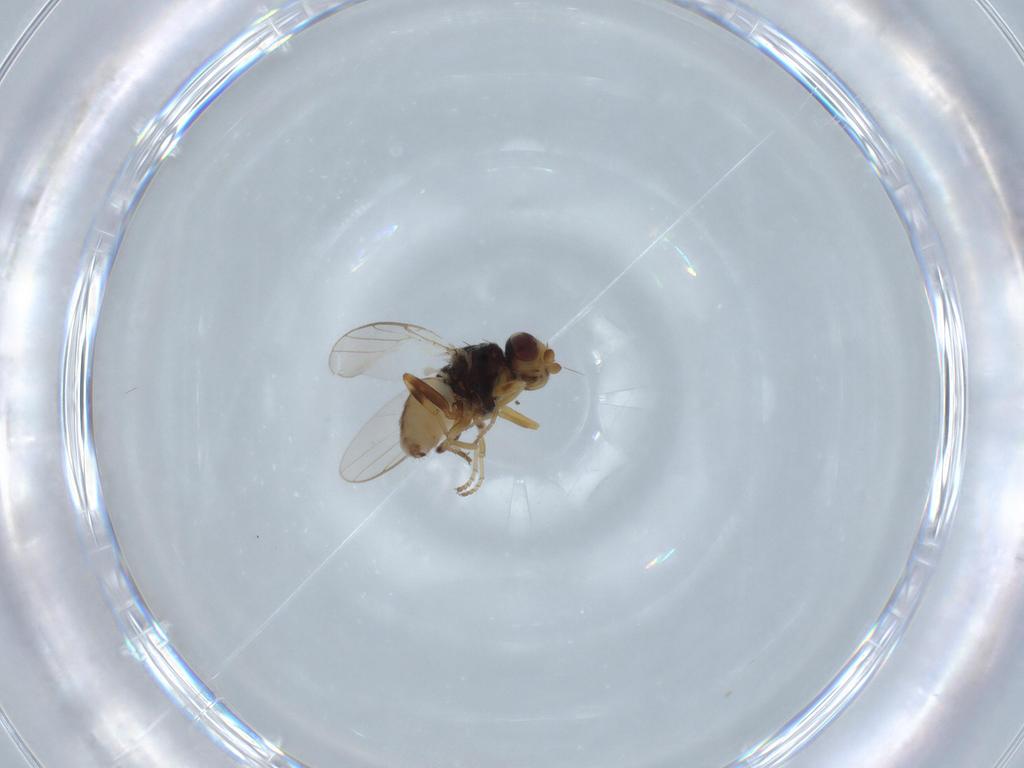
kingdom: Animalia
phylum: Arthropoda
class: Insecta
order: Diptera
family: Chloropidae
